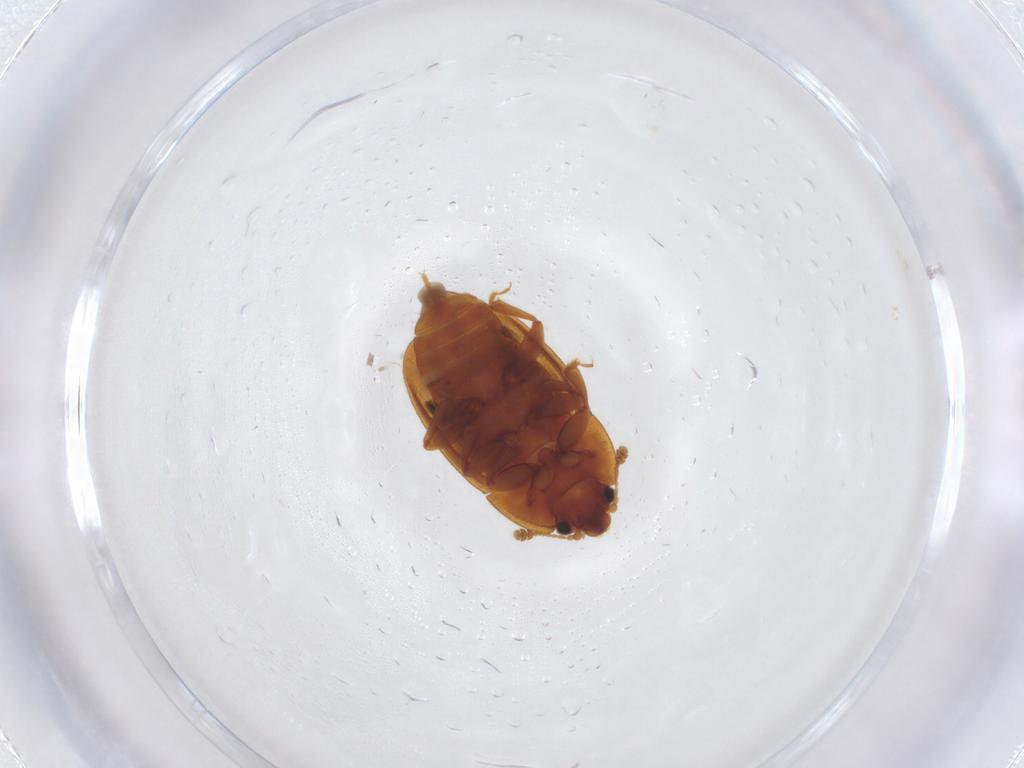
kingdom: Animalia
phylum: Arthropoda
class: Insecta
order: Coleoptera
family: Nitidulidae
